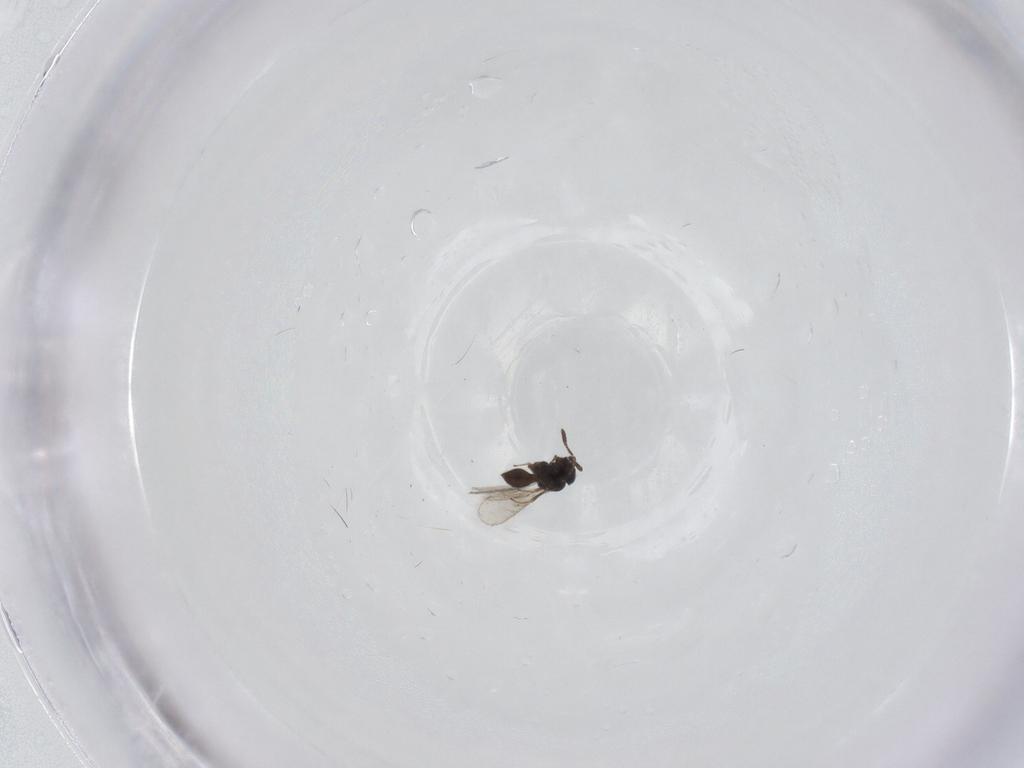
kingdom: Animalia
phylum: Arthropoda
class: Insecta
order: Hymenoptera
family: Scelionidae
